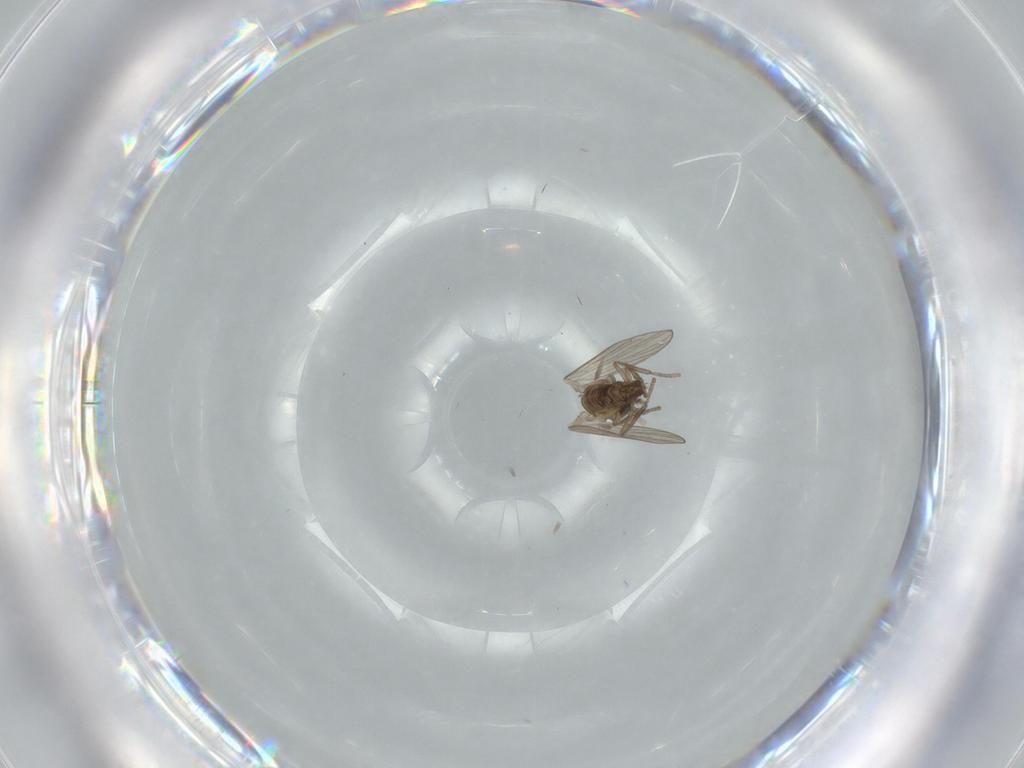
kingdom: Animalia
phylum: Arthropoda
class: Insecta
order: Diptera
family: Psychodidae
